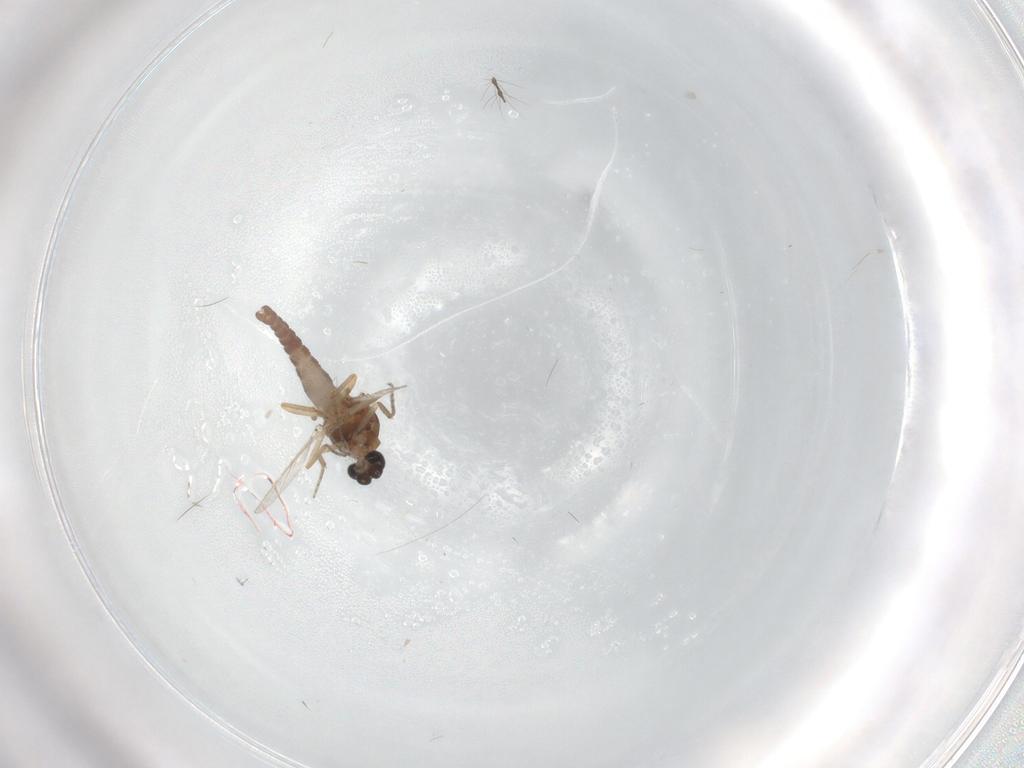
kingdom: Animalia
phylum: Arthropoda
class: Insecta
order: Diptera
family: Ceratopogonidae
